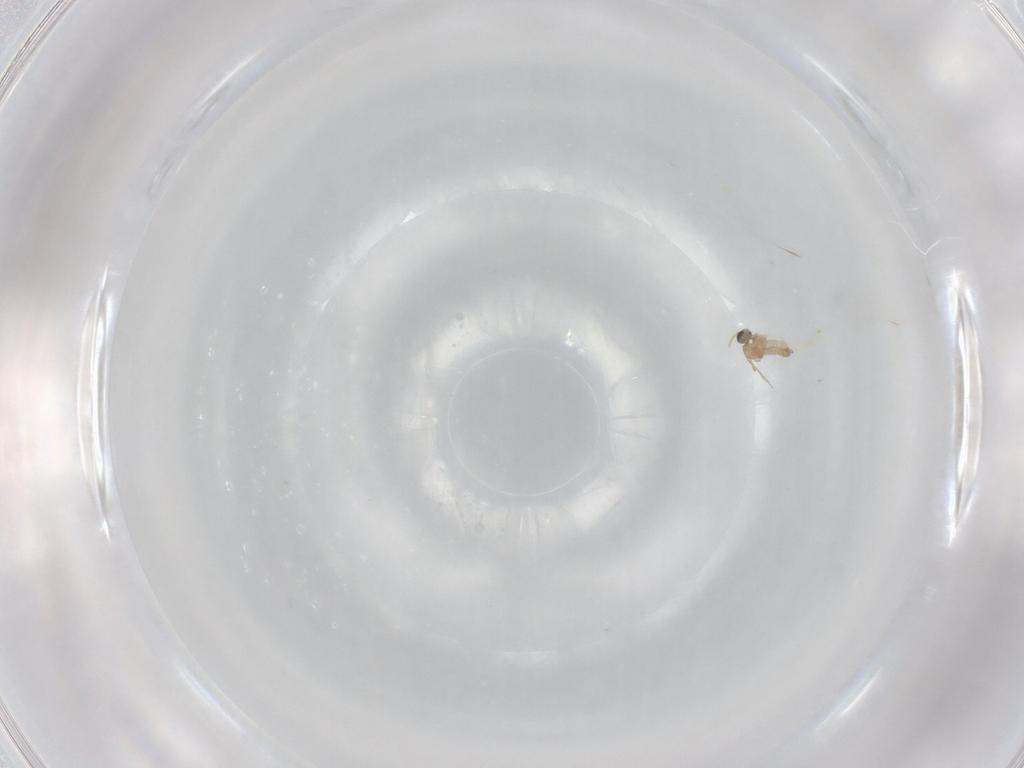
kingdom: Animalia
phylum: Arthropoda
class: Insecta
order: Diptera
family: Cecidomyiidae
